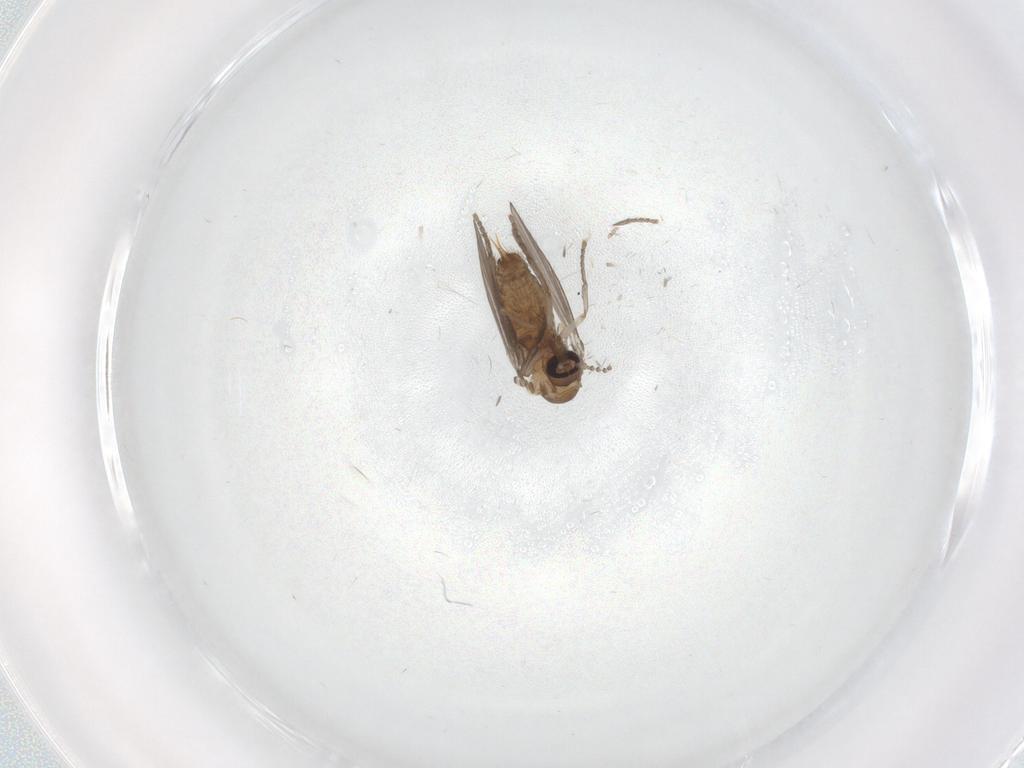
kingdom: Animalia
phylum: Arthropoda
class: Insecta
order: Diptera
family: Psychodidae
